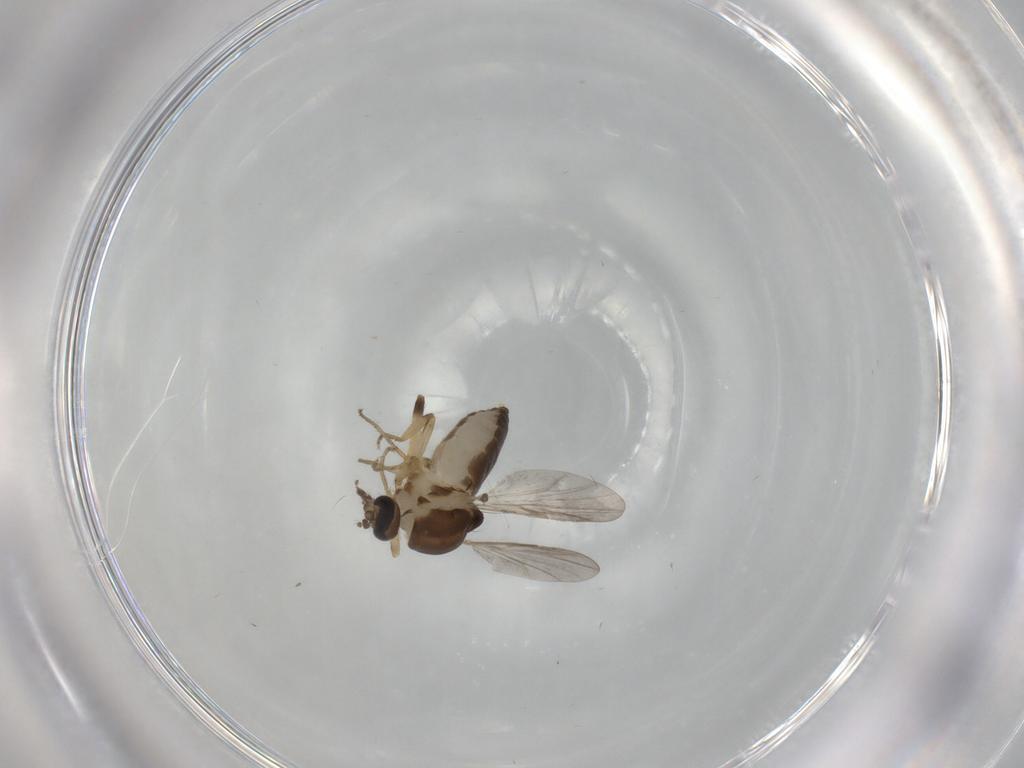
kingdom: Animalia
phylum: Arthropoda
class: Insecta
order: Diptera
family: Ceratopogonidae
